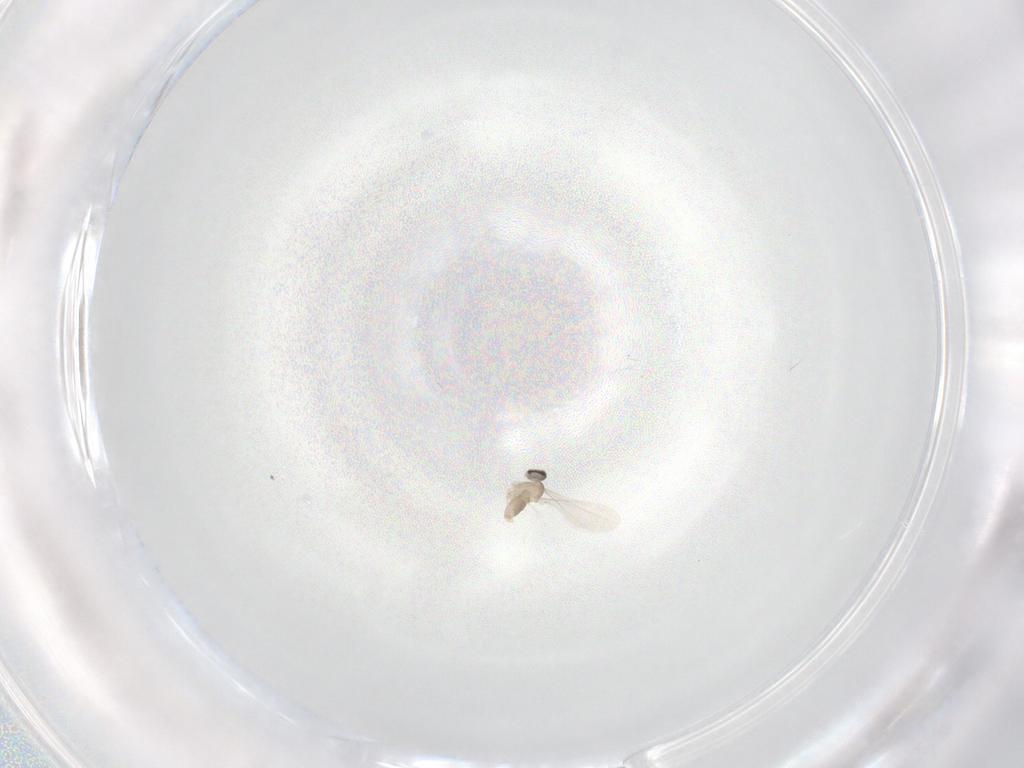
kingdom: Animalia
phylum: Arthropoda
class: Insecta
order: Diptera
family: Cecidomyiidae
